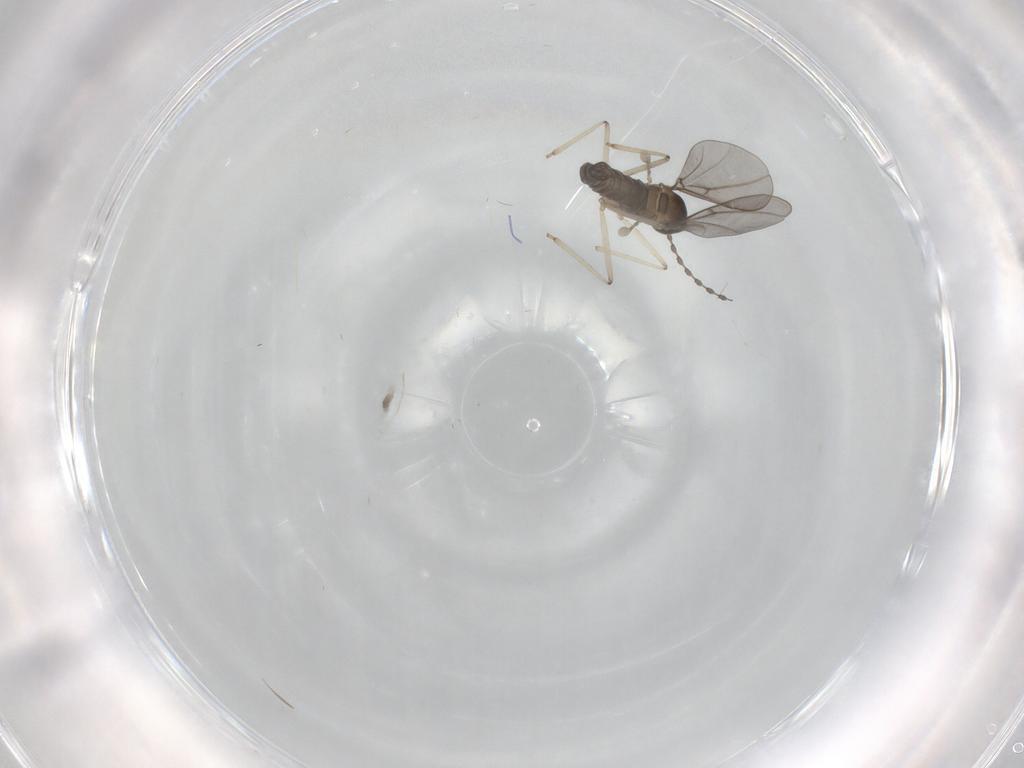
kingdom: Animalia
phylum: Arthropoda
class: Insecta
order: Diptera
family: Cecidomyiidae
